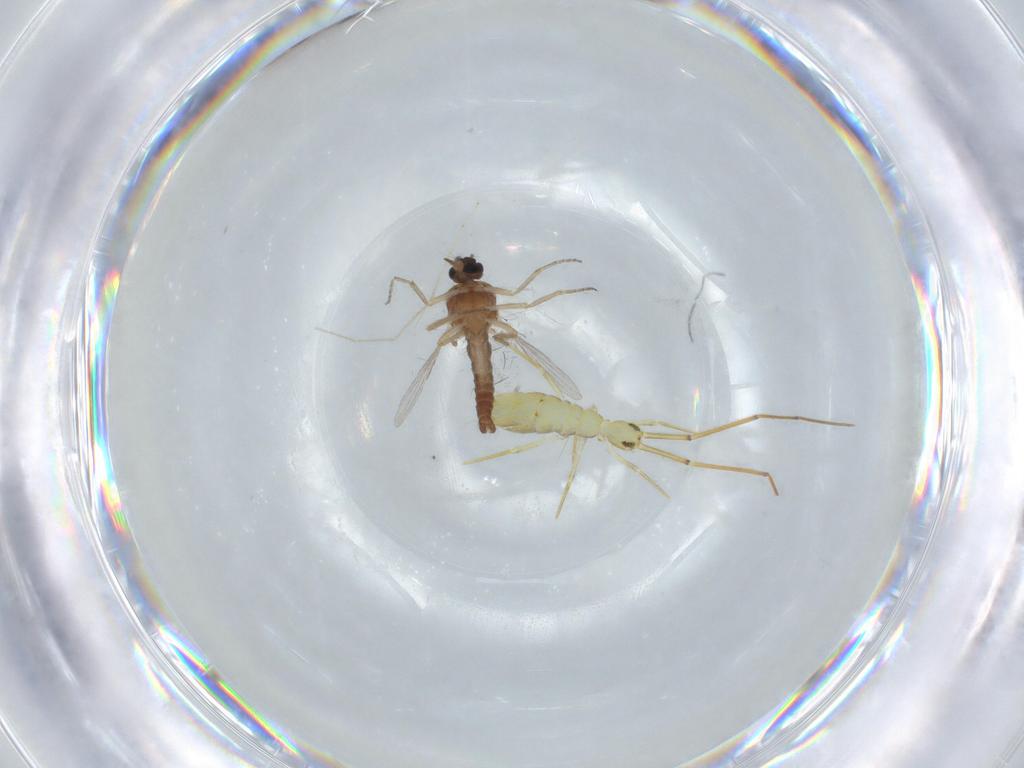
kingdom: Animalia
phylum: Arthropoda
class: Insecta
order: Diptera
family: Ceratopogonidae
